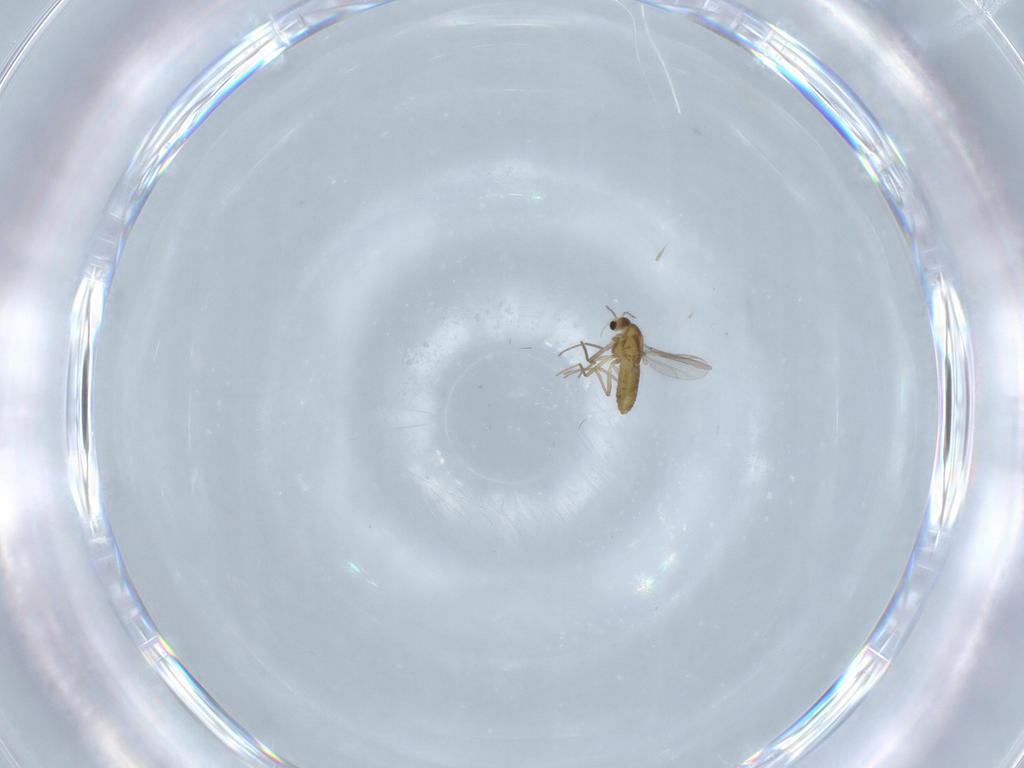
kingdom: Animalia
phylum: Arthropoda
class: Insecta
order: Diptera
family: Chironomidae
